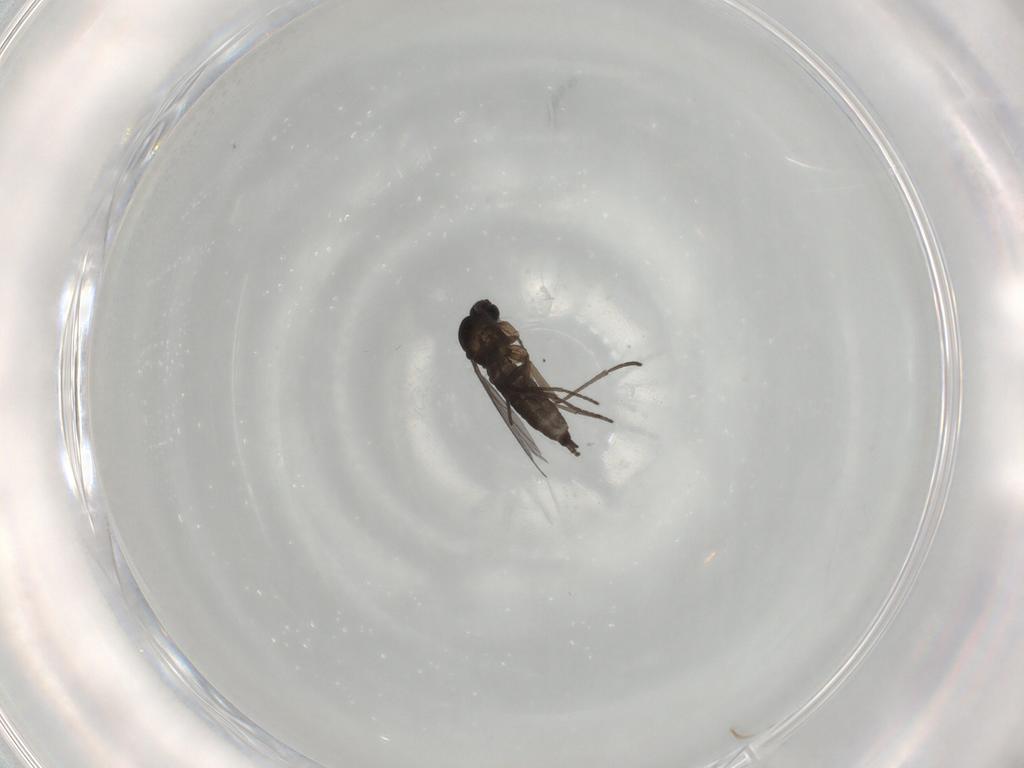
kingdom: Animalia
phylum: Arthropoda
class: Insecta
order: Diptera
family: Sciaridae
